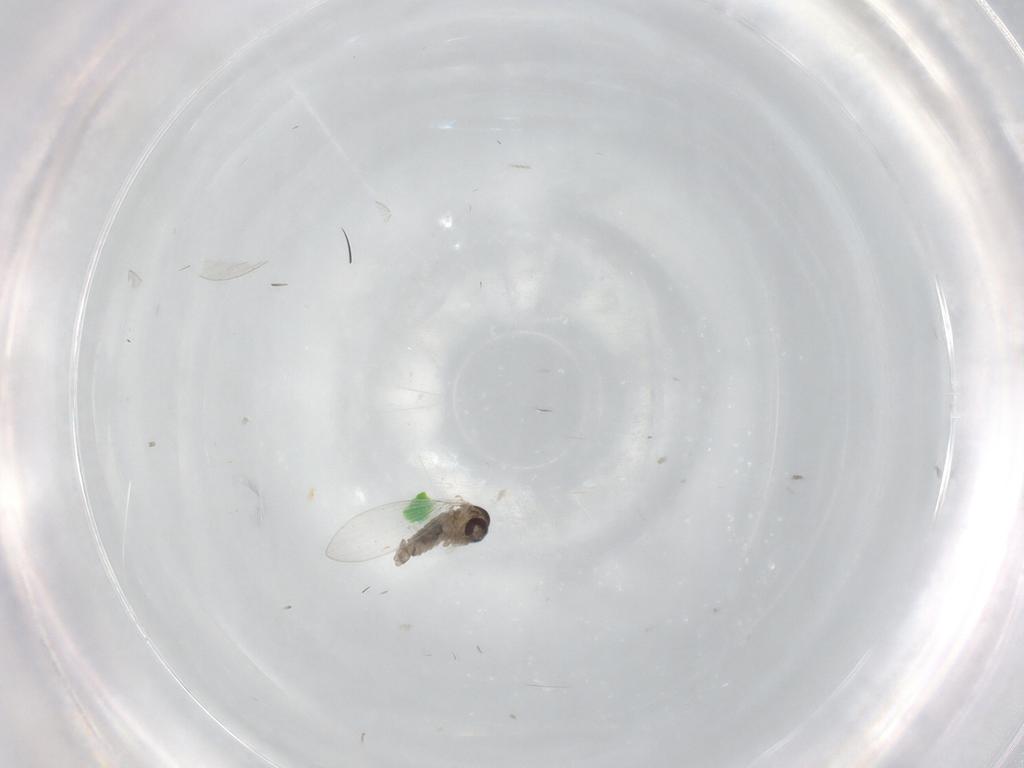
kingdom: Animalia
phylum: Arthropoda
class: Insecta
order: Diptera
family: Psychodidae
